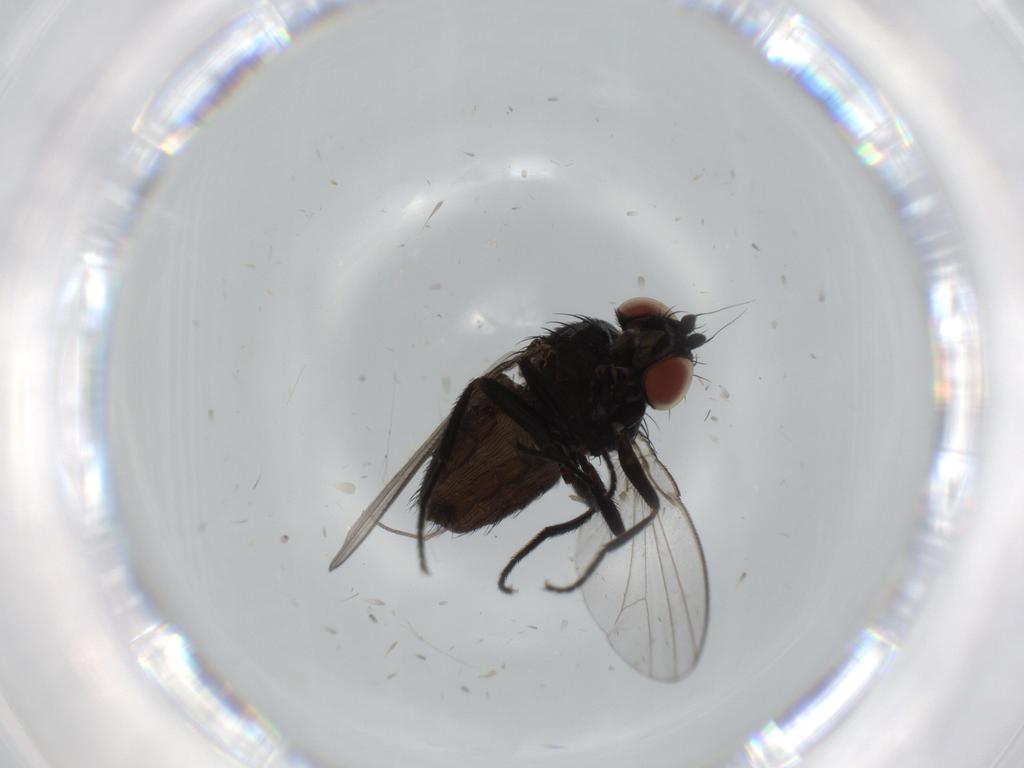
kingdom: Animalia
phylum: Arthropoda
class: Insecta
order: Diptera
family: Milichiidae
